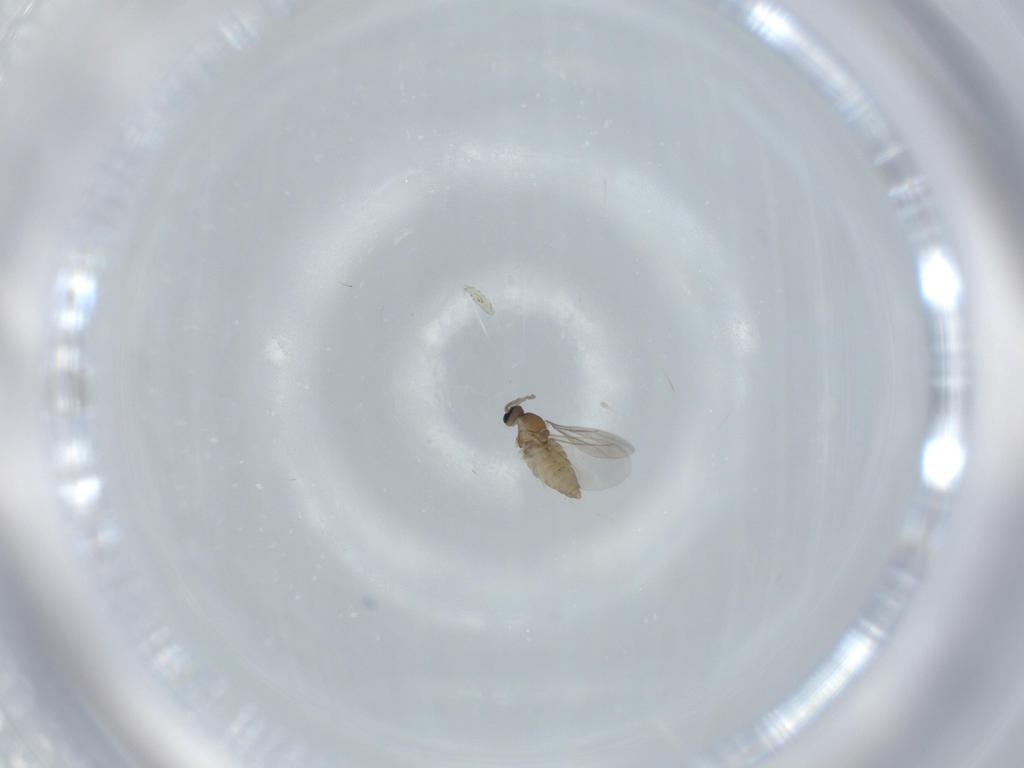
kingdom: Animalia
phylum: Arthropoda
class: Insecta
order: Diptera
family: Cecidomyiidae
